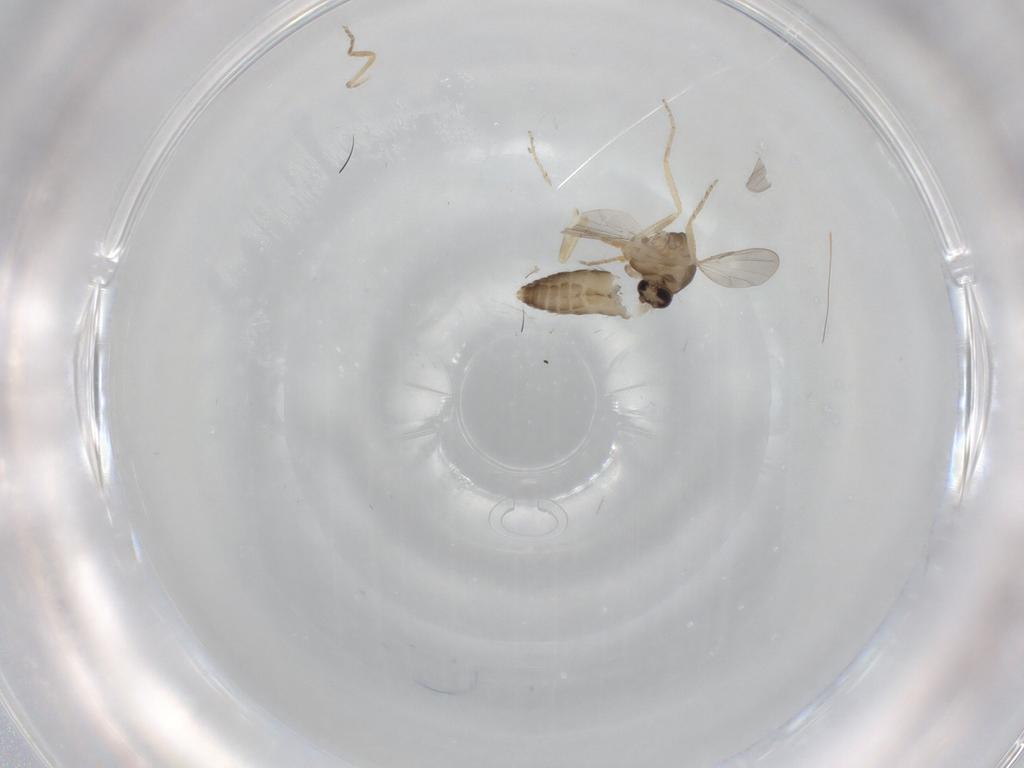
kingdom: Animalia
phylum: Arthropoda
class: Insecta
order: Diptera
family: Ceratopogonidae
